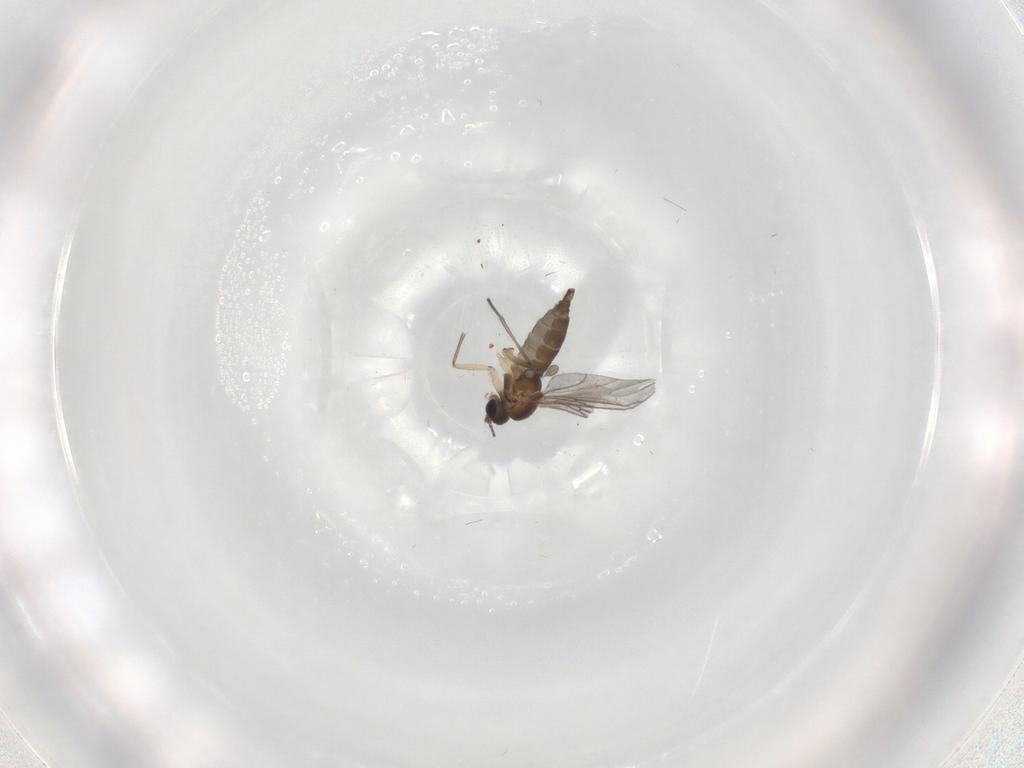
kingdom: Animalia
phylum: Arthropoda
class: Insecta
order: Diptera
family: Phoridae
